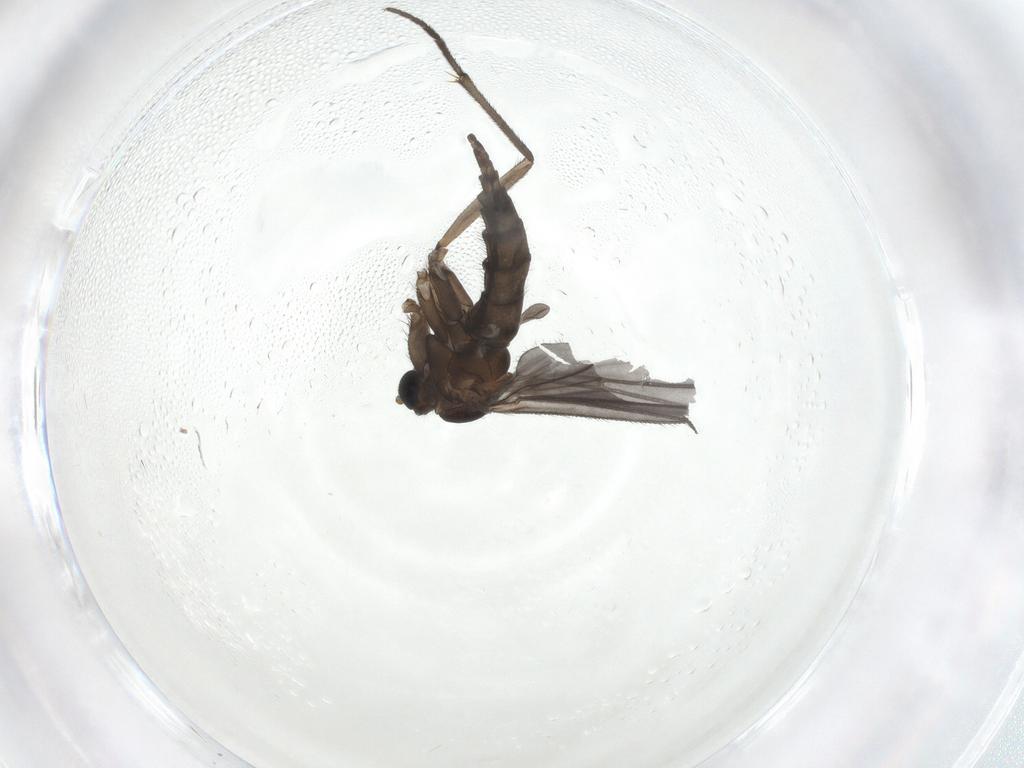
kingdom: Animalia
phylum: Arthropoda
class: Insecta
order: Diptera
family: Sciaridae
